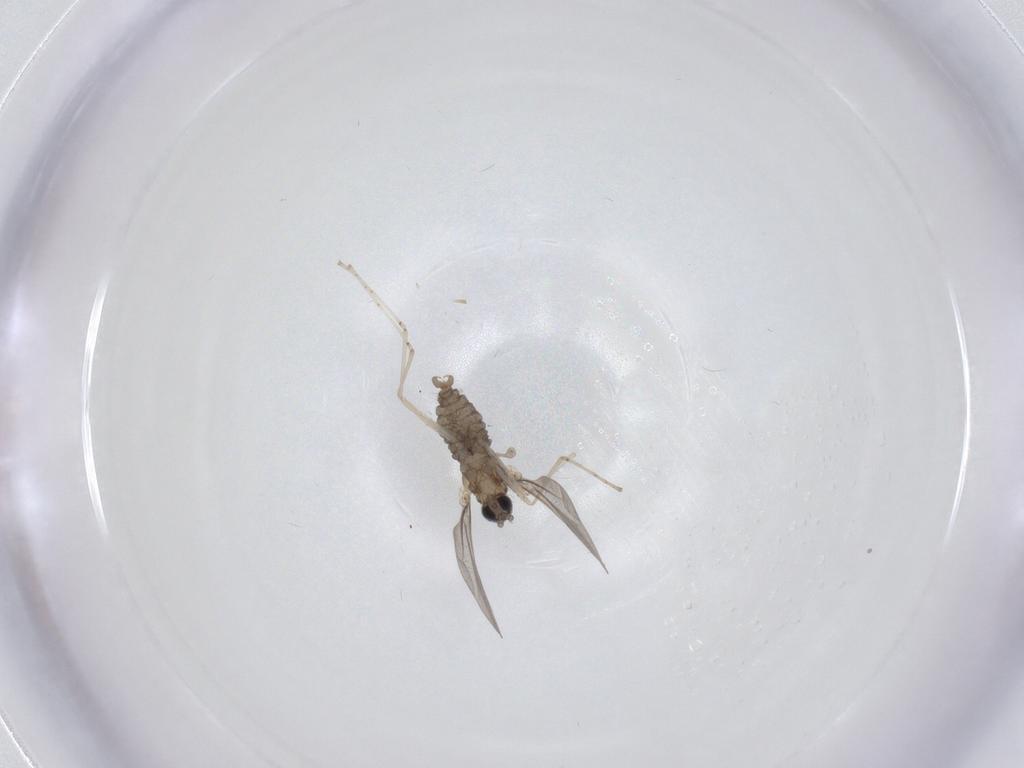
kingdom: Animalia
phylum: Arthropoda
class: Insecta
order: Diptera
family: Cecidomyiidae
